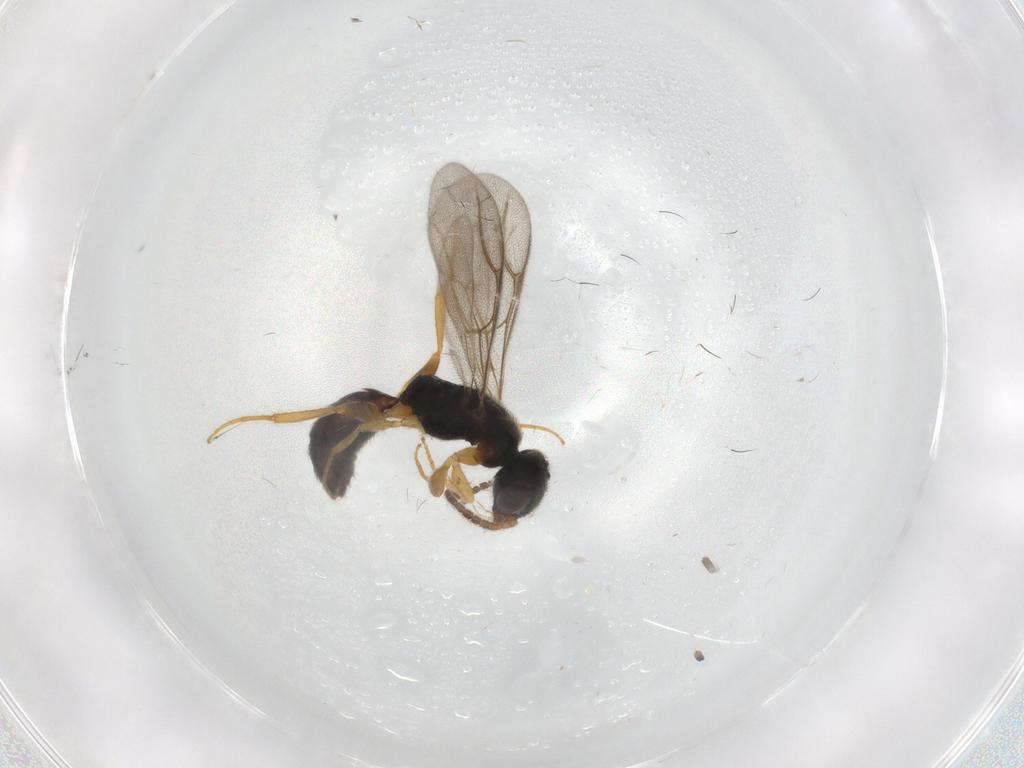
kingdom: Animalia
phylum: Arthropoda
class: Insecta
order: Hymenoptera
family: Bethylidae
